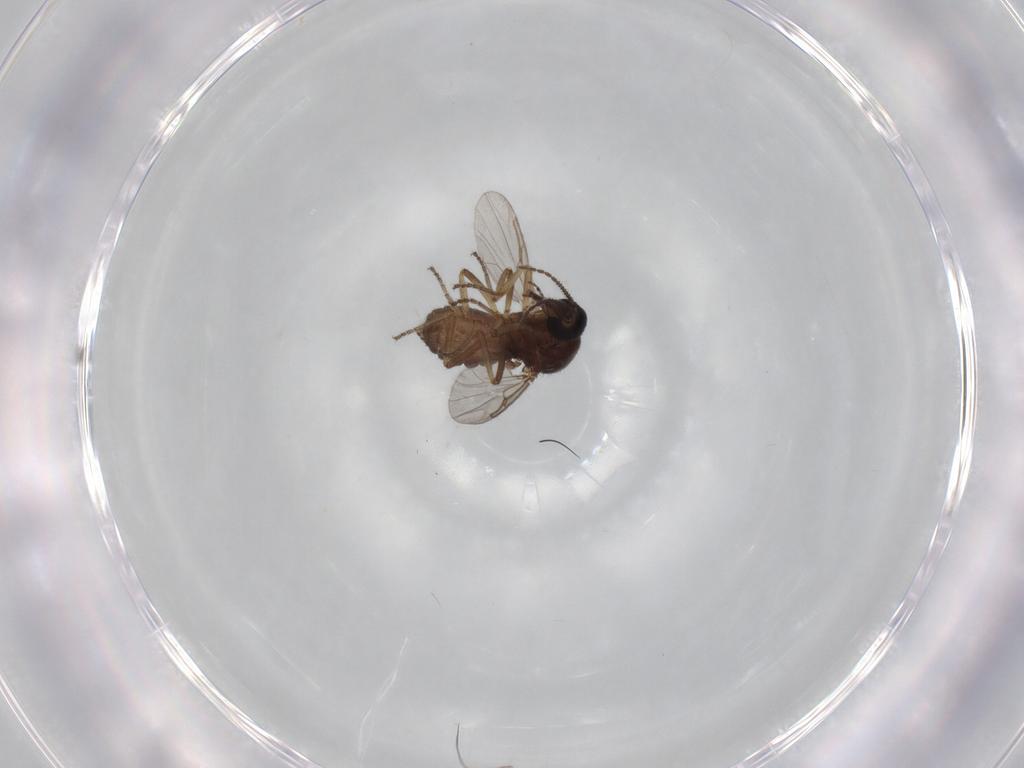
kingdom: Animalia
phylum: Arthropoda
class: Insecta
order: Diptera
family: Ceratopogonidae
